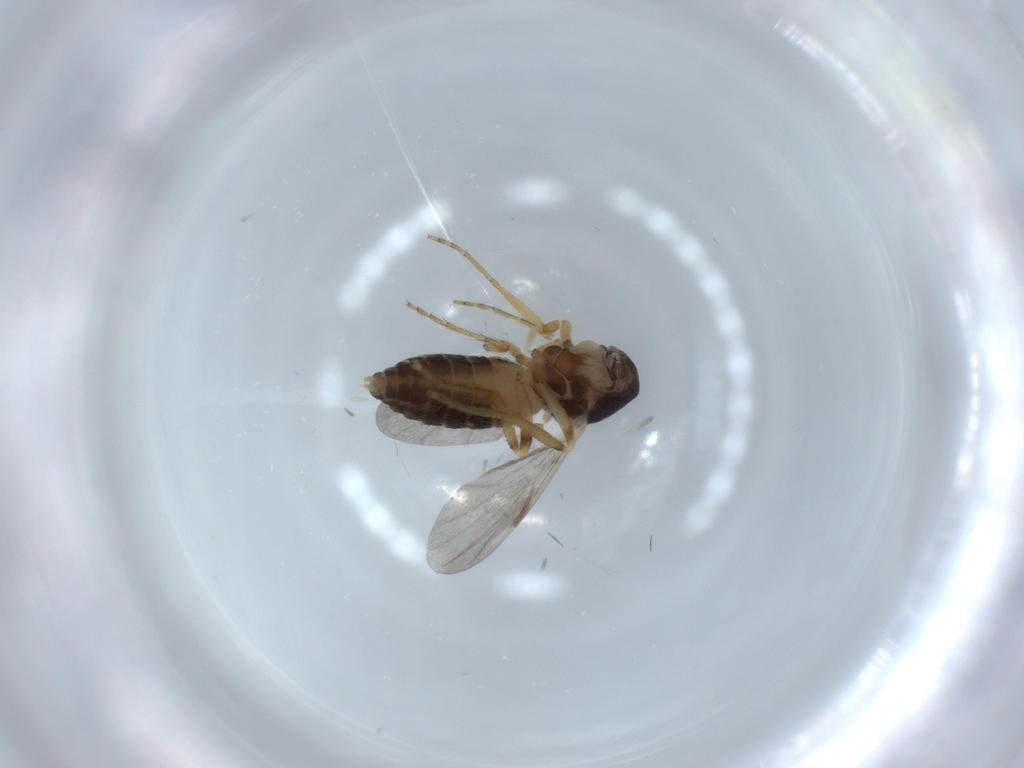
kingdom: Animalia
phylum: Arthropoda
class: Insecta
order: Diptera
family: Ceratopogonidae
